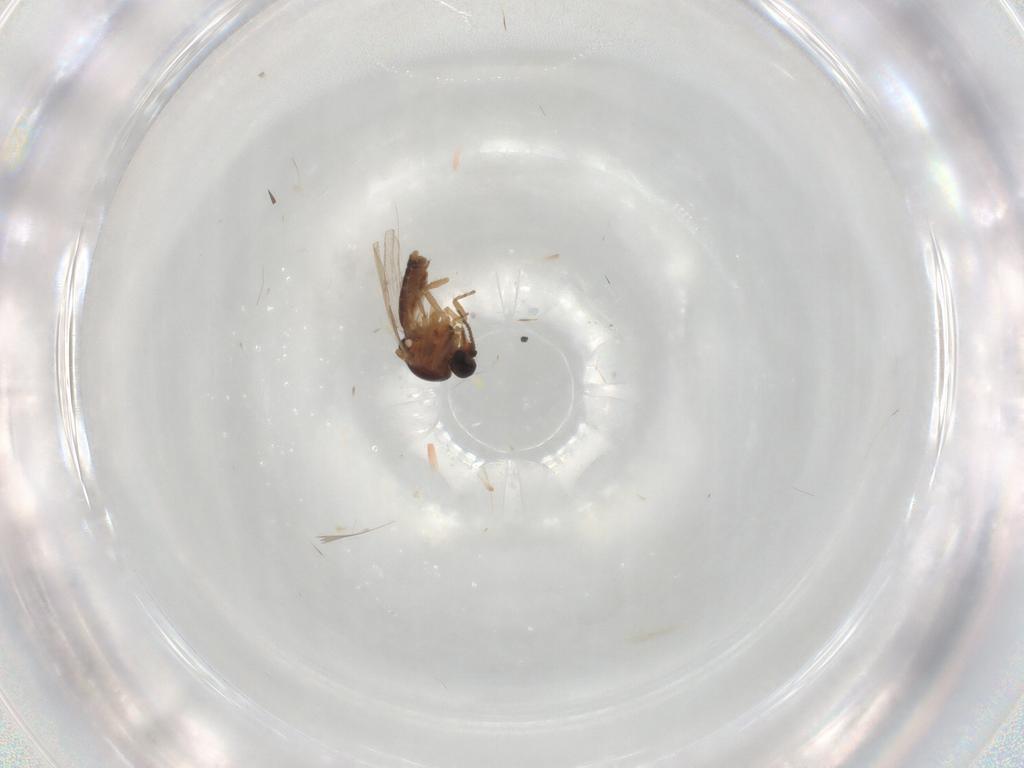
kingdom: Animalia
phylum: Arthropoda
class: Insecta
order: Diptera
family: Ceratopogonidae
